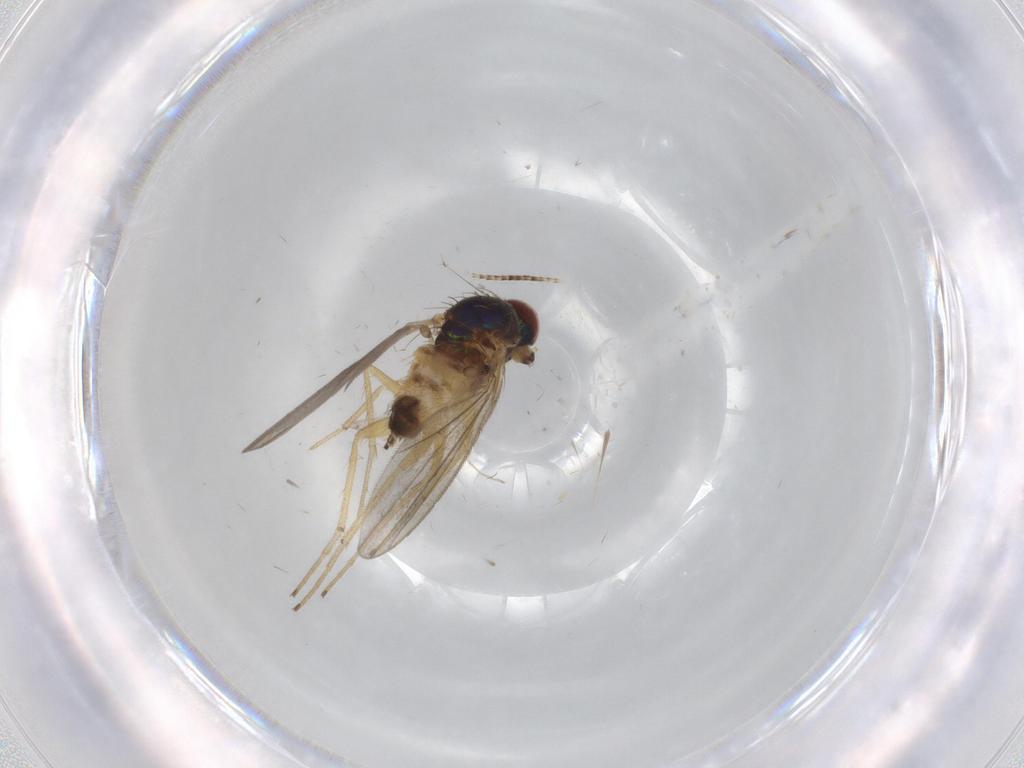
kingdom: Animalia
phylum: Arthropoda
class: Insecta
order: Diptera
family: Dolichopodidae
